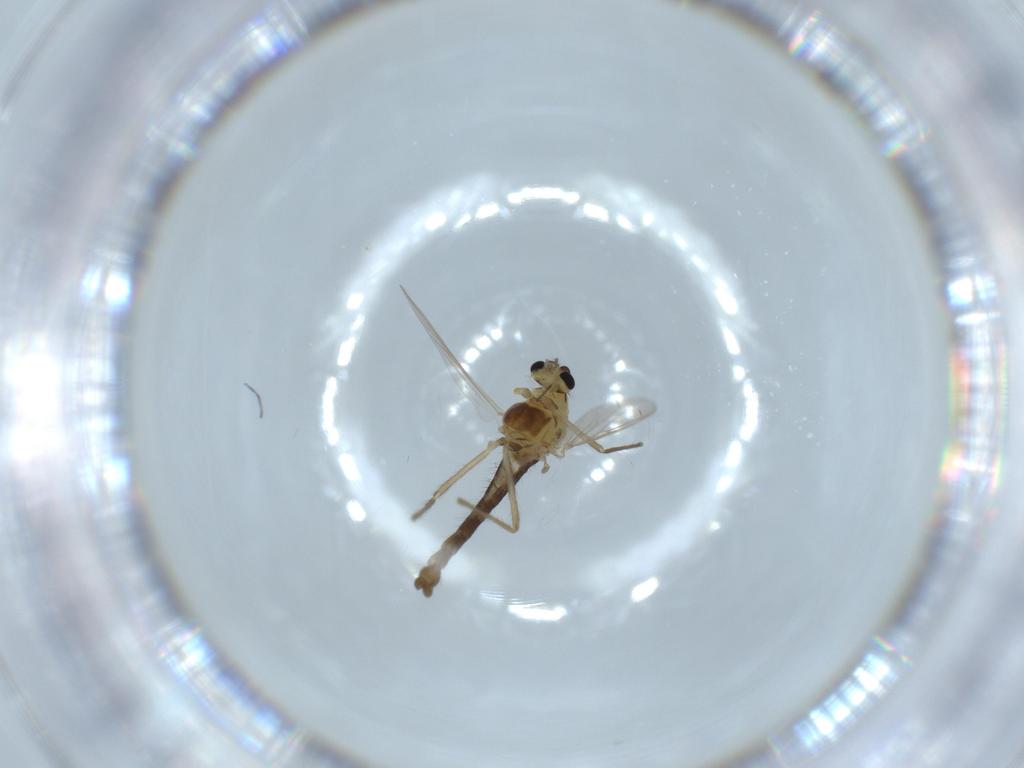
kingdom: Animalia
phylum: Arthropoda
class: Insecta
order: Diptera
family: Chironomidae
